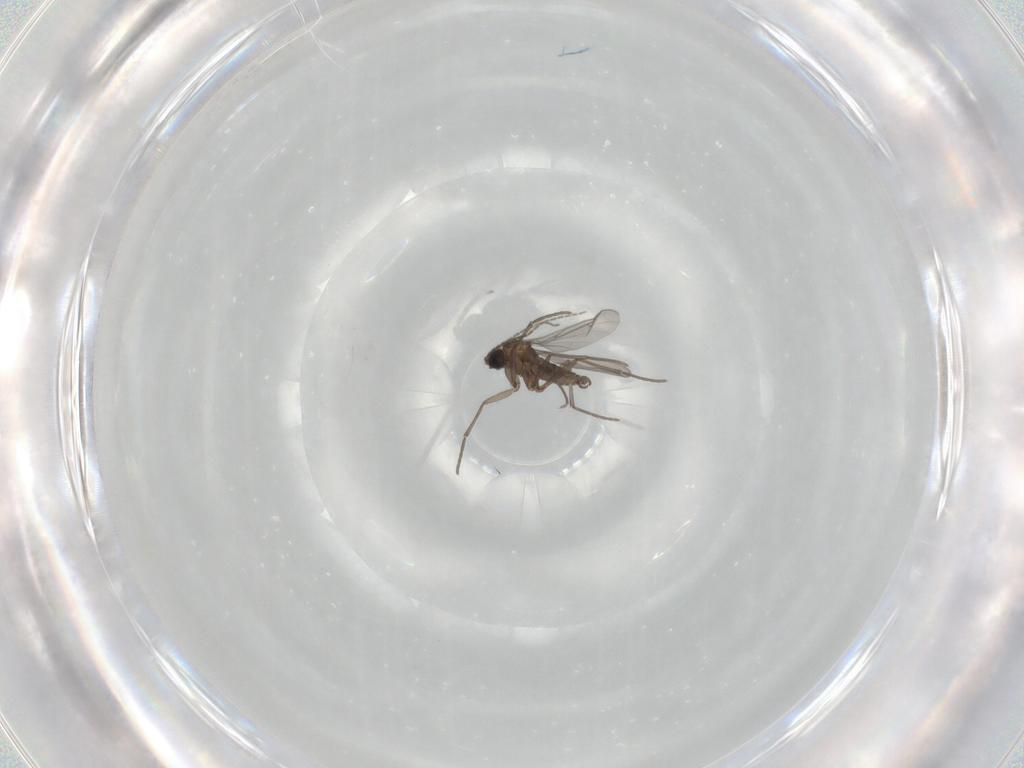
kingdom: Animalia
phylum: Arthropoda
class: Insecta
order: Diptera
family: Sciaridae
